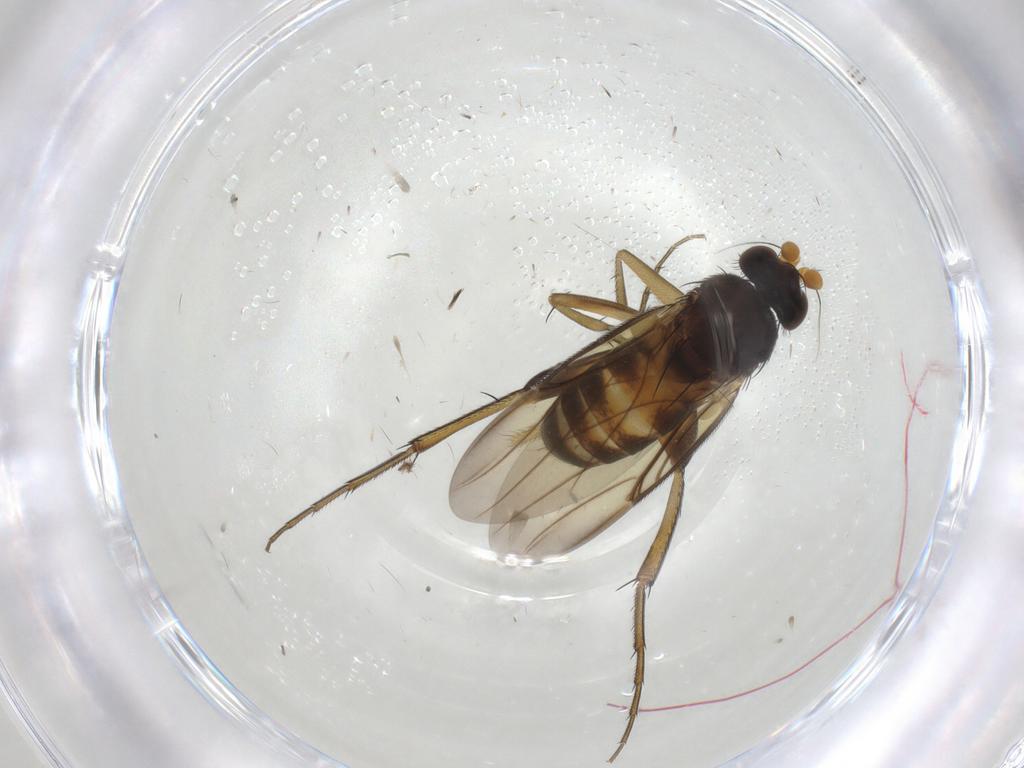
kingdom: Animalia
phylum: Arthropoda
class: Insecta
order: Diptera
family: Phoridae
